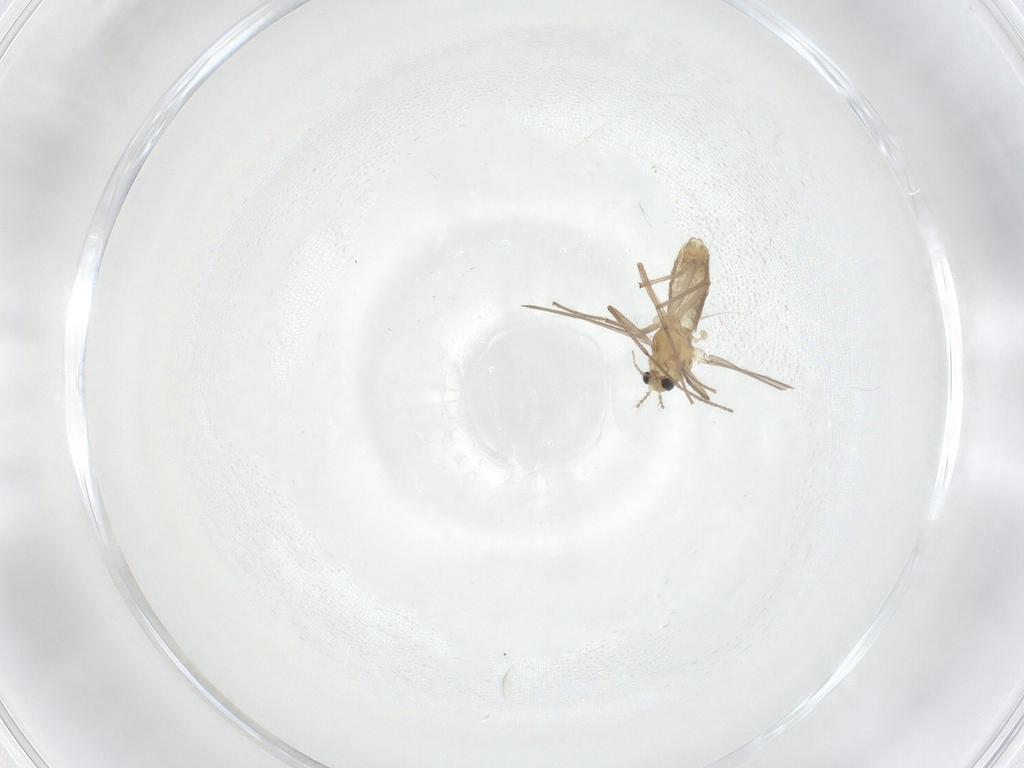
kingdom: Animalia
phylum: Arthropoda
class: Insecta
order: Diptera
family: Chironomidae
